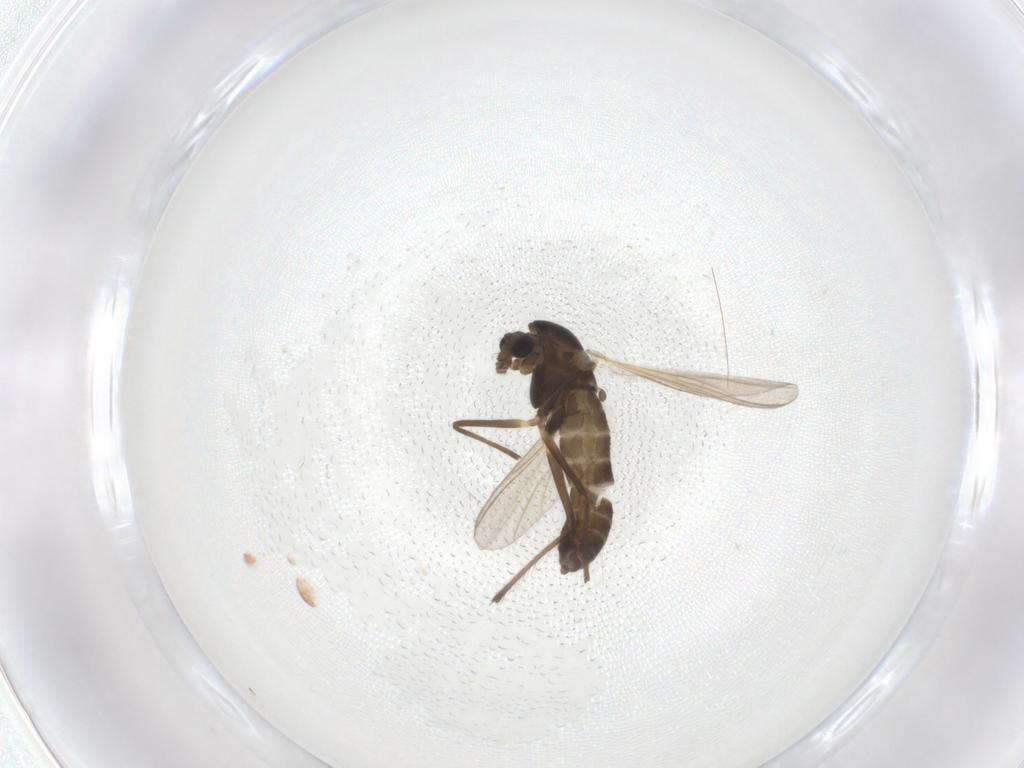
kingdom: Animalia
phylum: Arthropoda
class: Insecta
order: Diptera
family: Chironomidae
